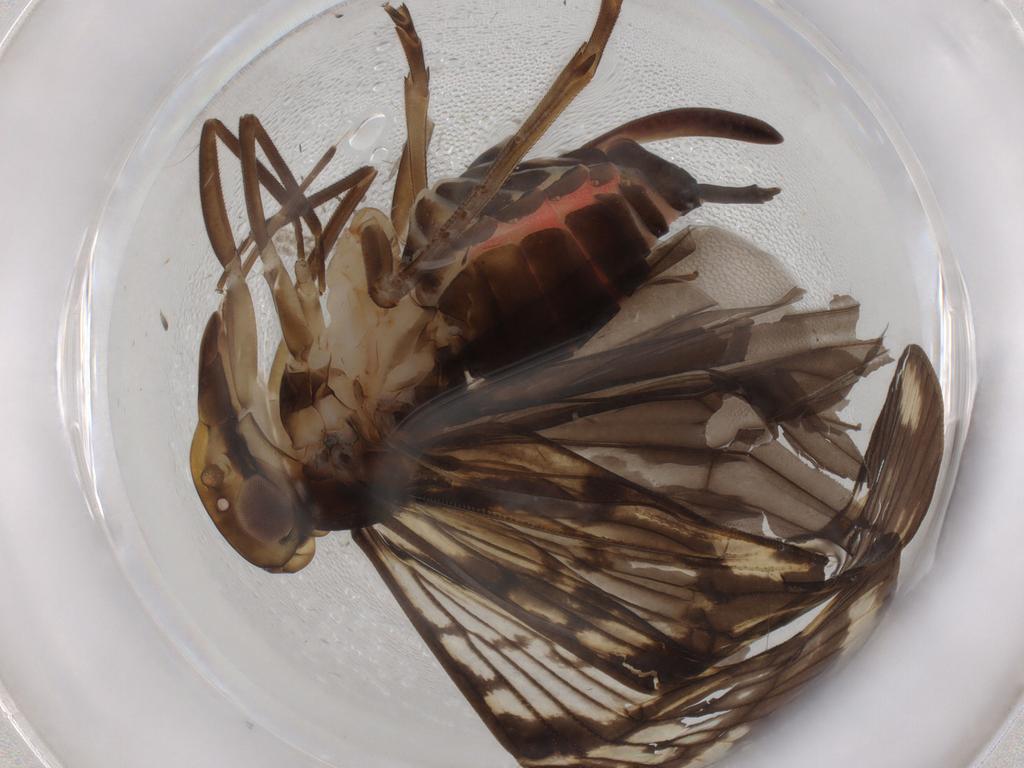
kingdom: Animalia
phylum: Arthropoda
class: Insecta
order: Hemiptera
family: Cixiidae
